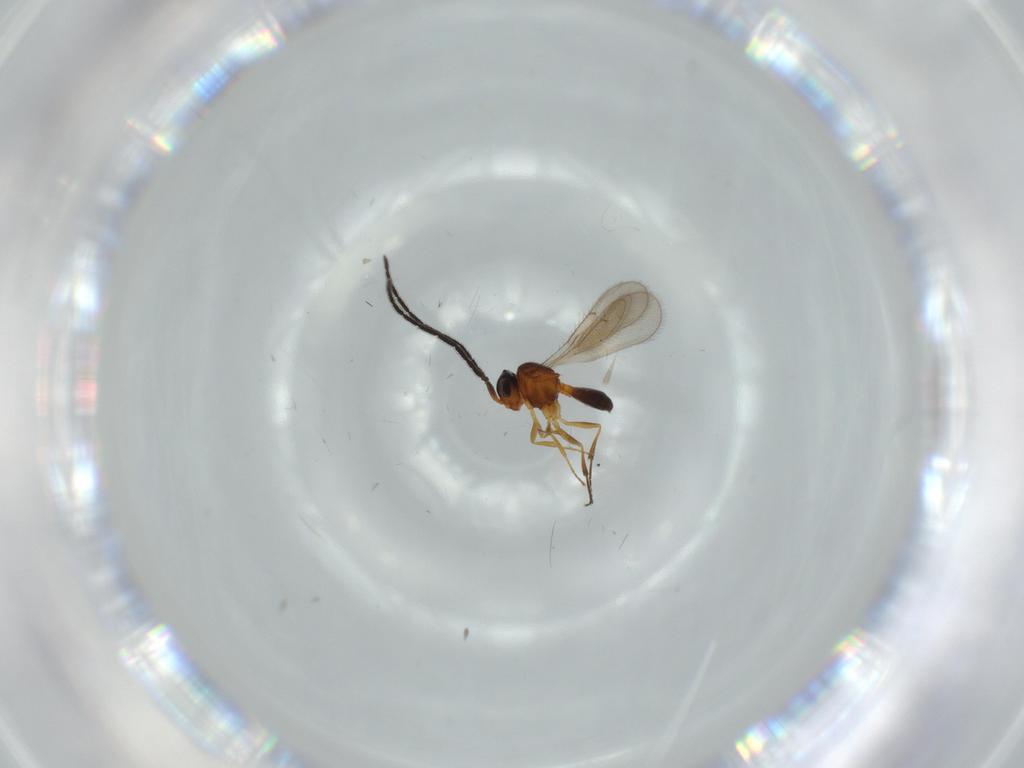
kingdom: Animalia
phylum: Arthropoda
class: Insecta
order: Hymenoptera
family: Scelionidae
